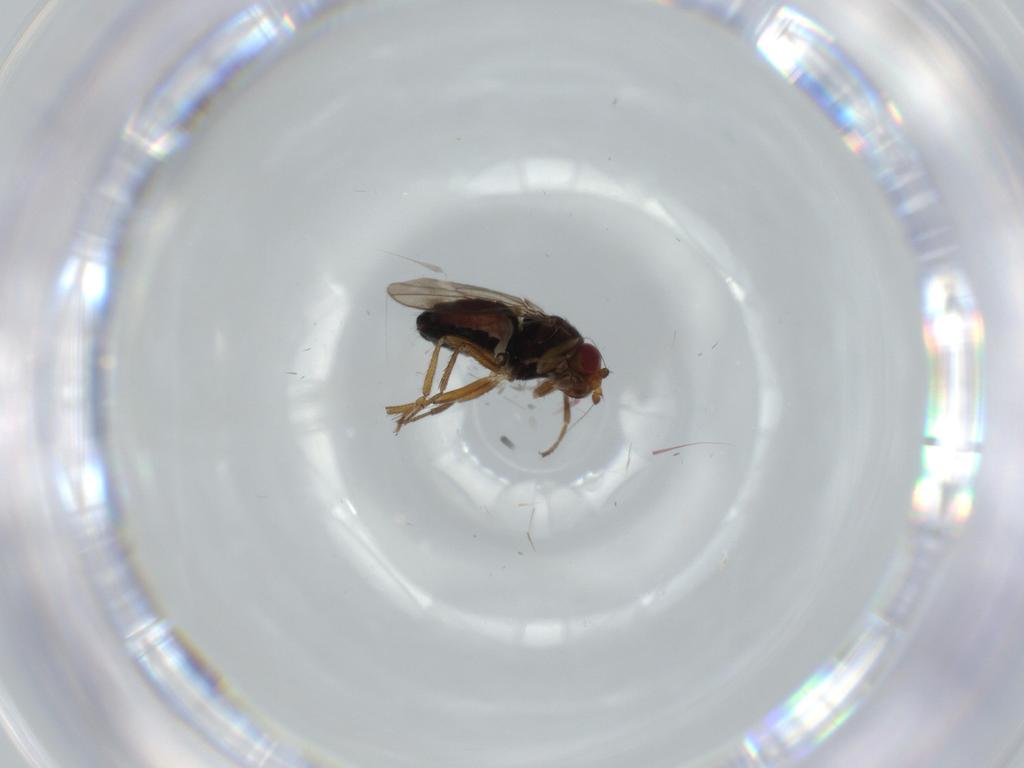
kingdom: Animalia
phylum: Arthropoda
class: Insecta
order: Diptera
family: Sphaeroceridae
